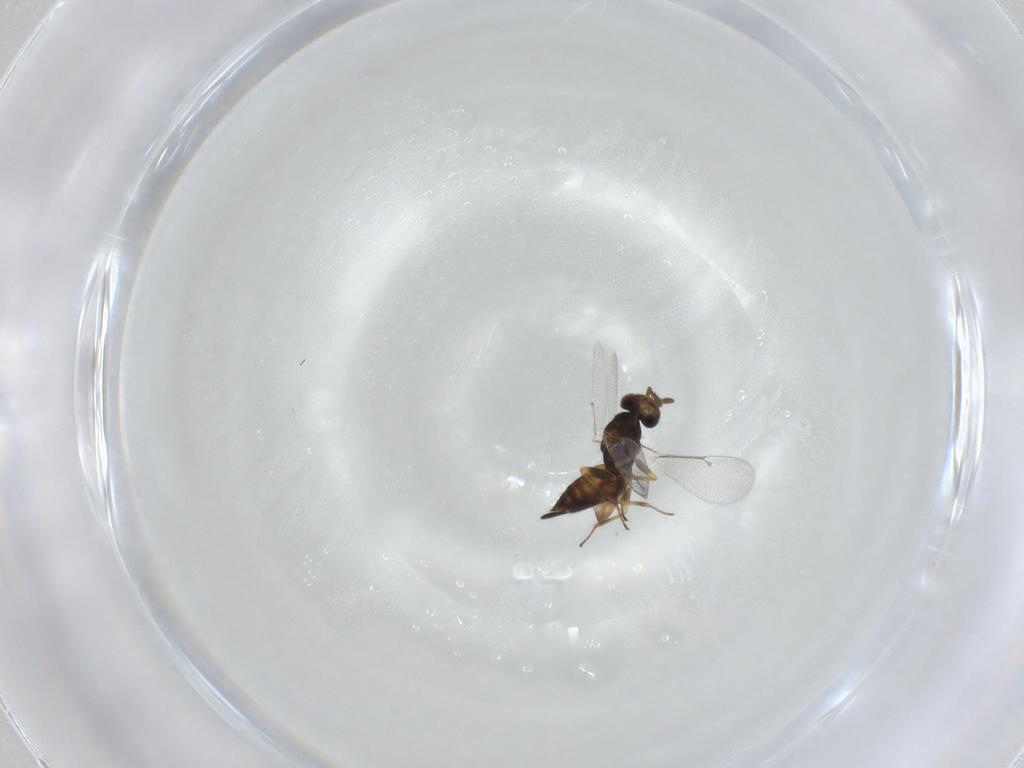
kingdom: Animalia
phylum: Arthropoda
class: Insecta
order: Hymenoptera
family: Eulophidae
